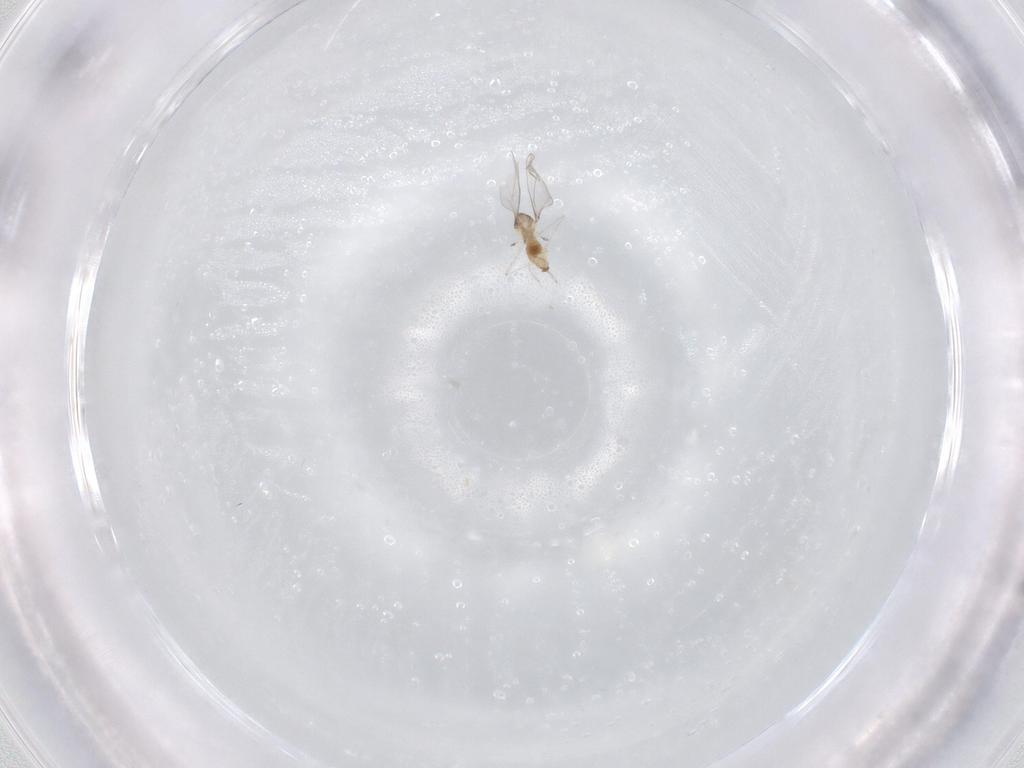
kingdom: Animalia
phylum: Arthropoda
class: Insecta
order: Diptera
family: Cecidomyiidae
